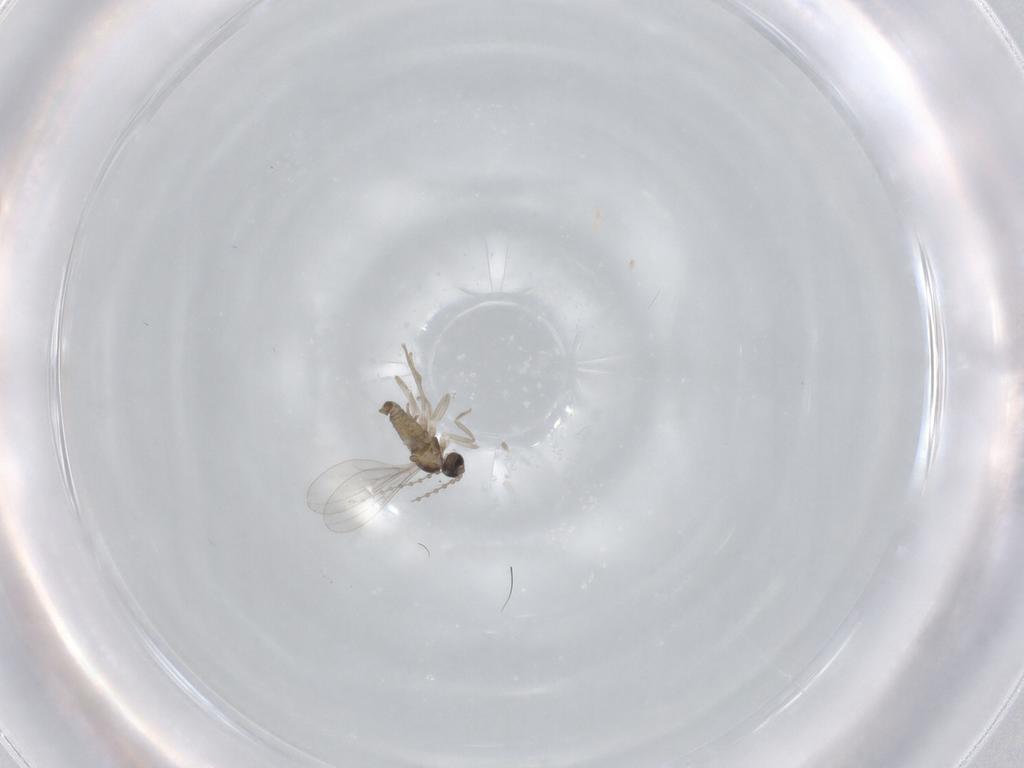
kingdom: Animalia
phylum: Arthropoda
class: Insecta
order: Diptera
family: Cecidomyiidae
